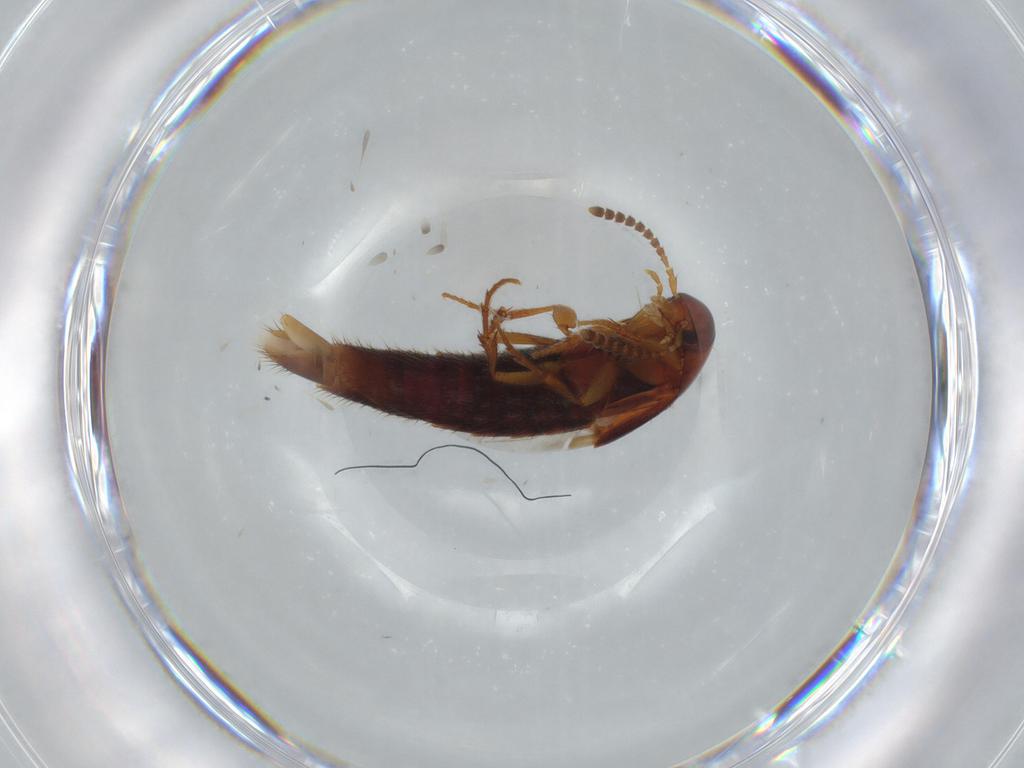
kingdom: Animalia
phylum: Arthropoda
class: Insecta
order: Coleoptera
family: Staphylinidae
